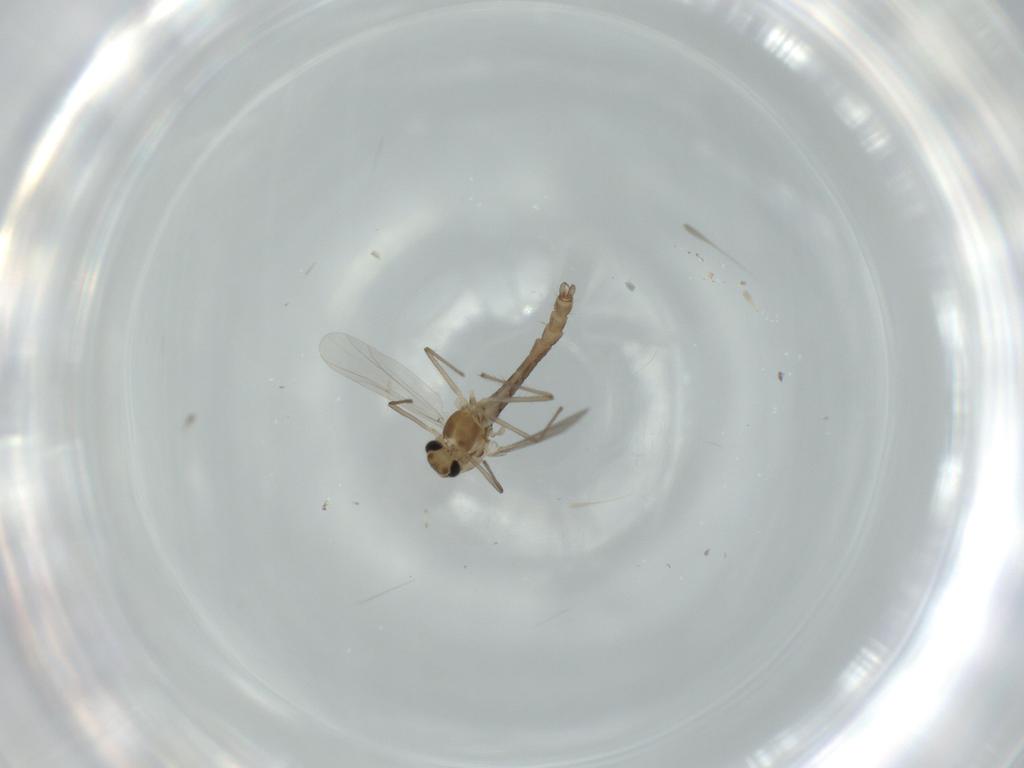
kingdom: Animalia
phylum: Arthropoda
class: Insecta
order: Diptera
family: Chironomidae
